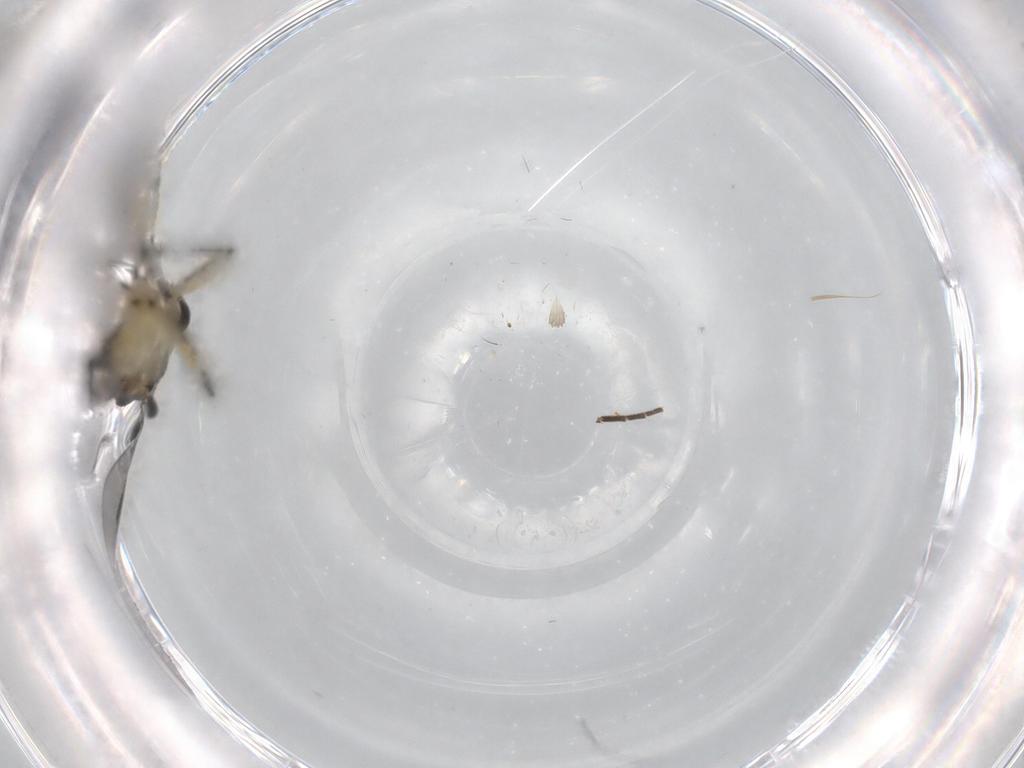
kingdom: Animalia
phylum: Arthropoda
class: Insecta
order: Diptera
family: Sciaridae
